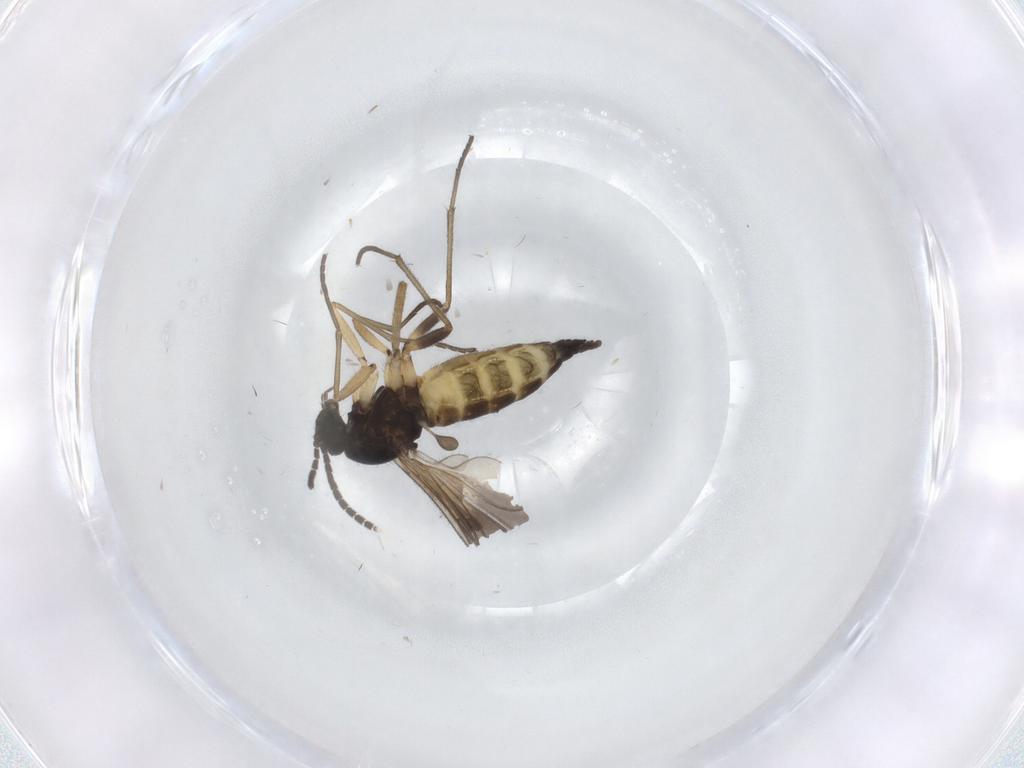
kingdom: Animalia
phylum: Arthropoda
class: Insecta
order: Diptera
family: Sciaridae
